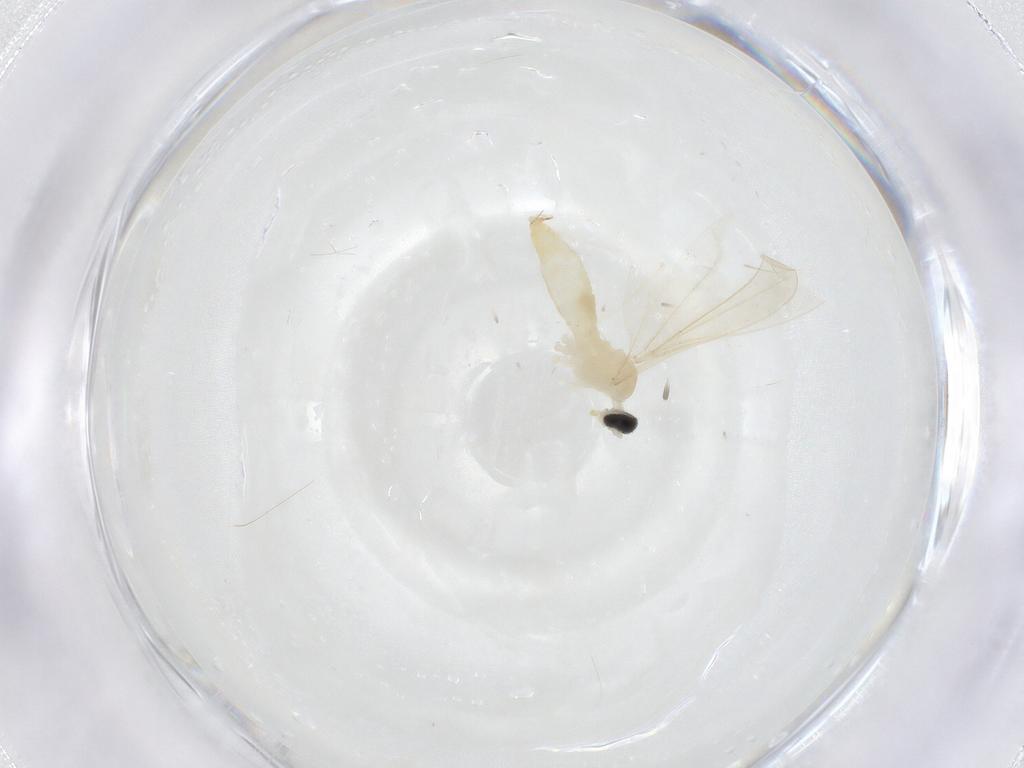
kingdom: Animalia
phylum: Arthropoda
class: Insecta
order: Diptera
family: Cecidomyiidae
